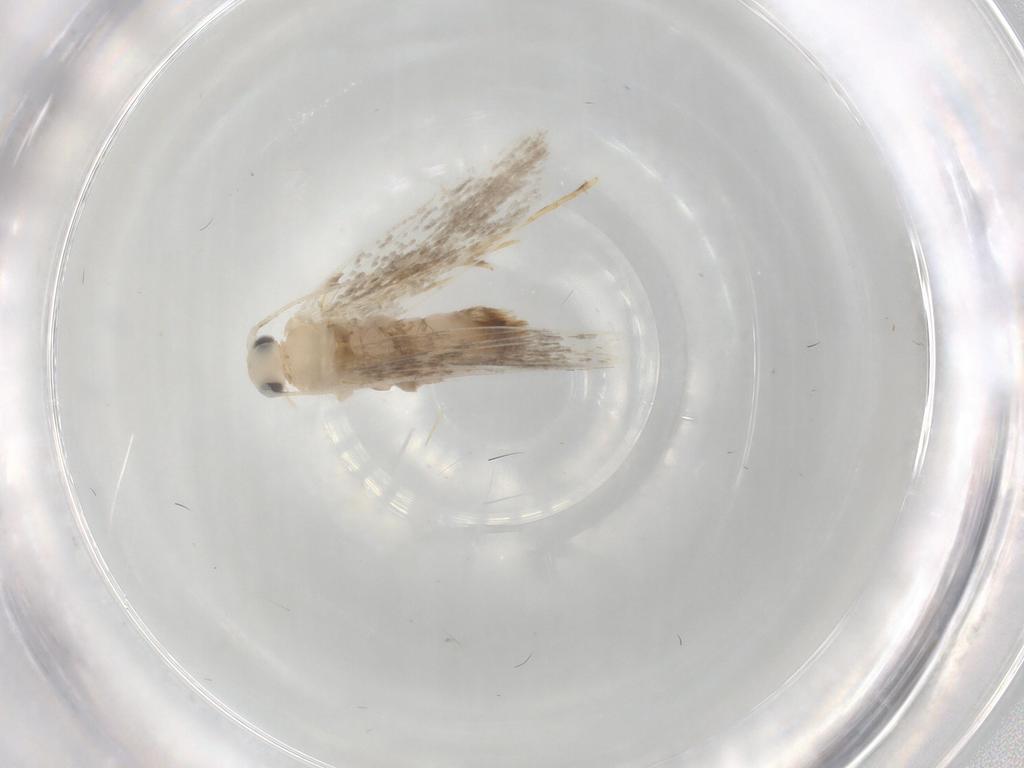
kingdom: Animalia
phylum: Arthropoda
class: Insecta
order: Lepidoptera
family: Dryadaulidae
